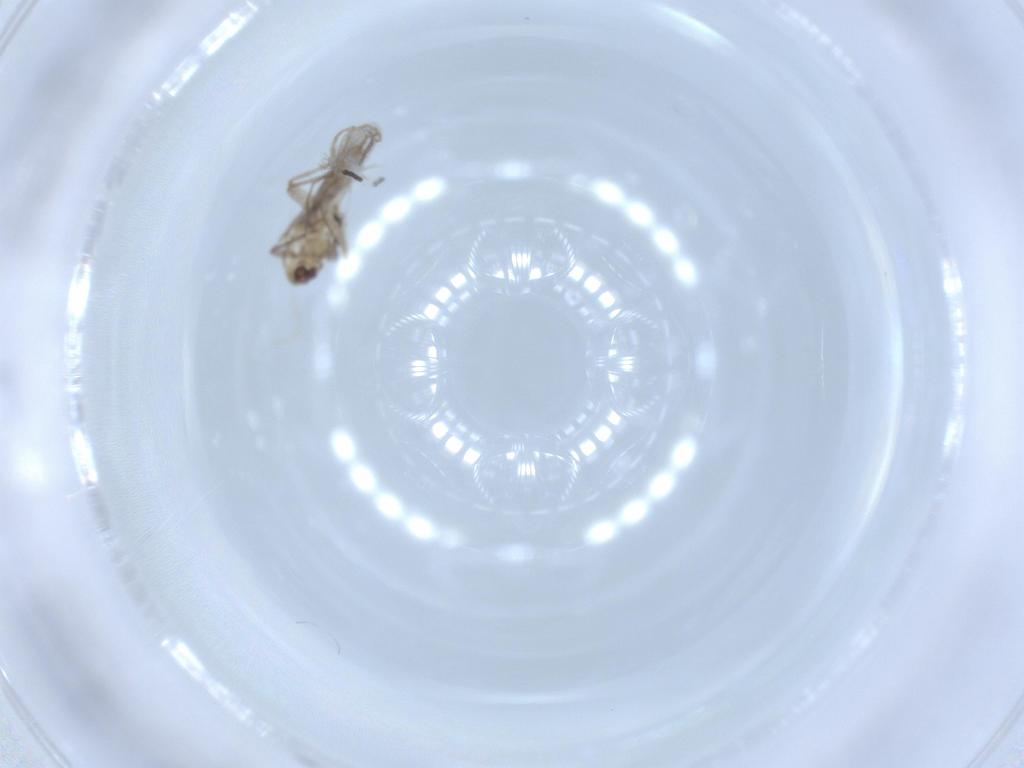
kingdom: Animalia
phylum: Arthropoda
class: Insecta
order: Diptera
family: Sciaridae
